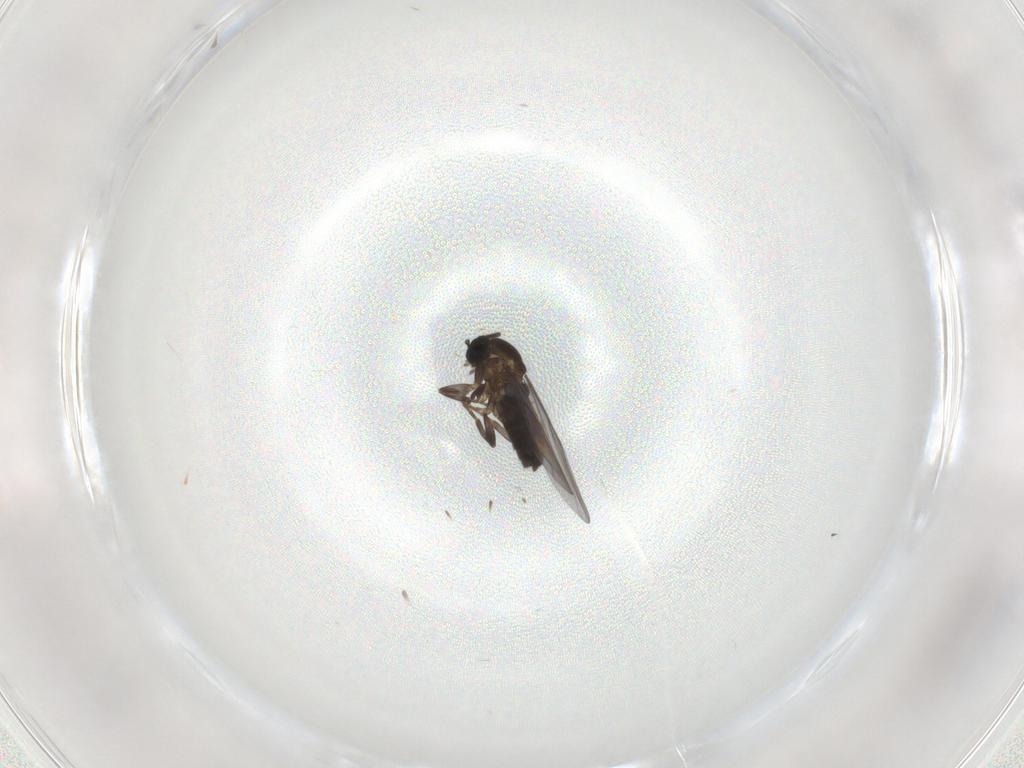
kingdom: Animalia
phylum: Arthropoda
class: Insecta
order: Diptera
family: Scatopsidae
